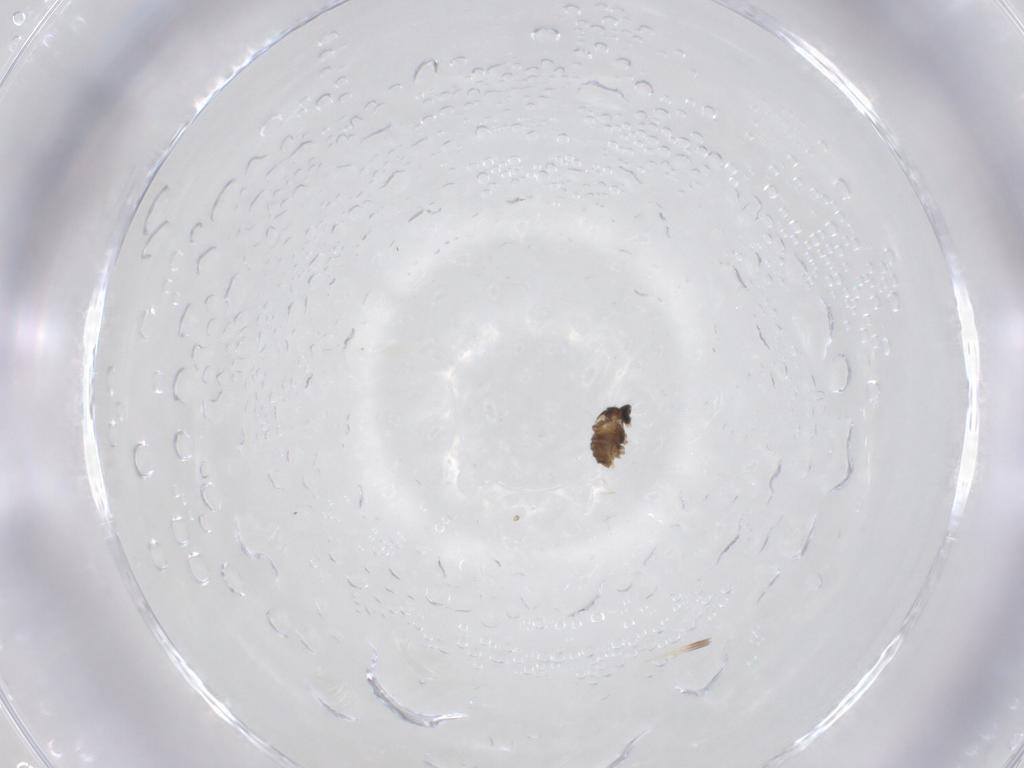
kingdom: Animalia
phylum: Arthropoda
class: Insecta
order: Diptera
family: Cecidomyiidae
